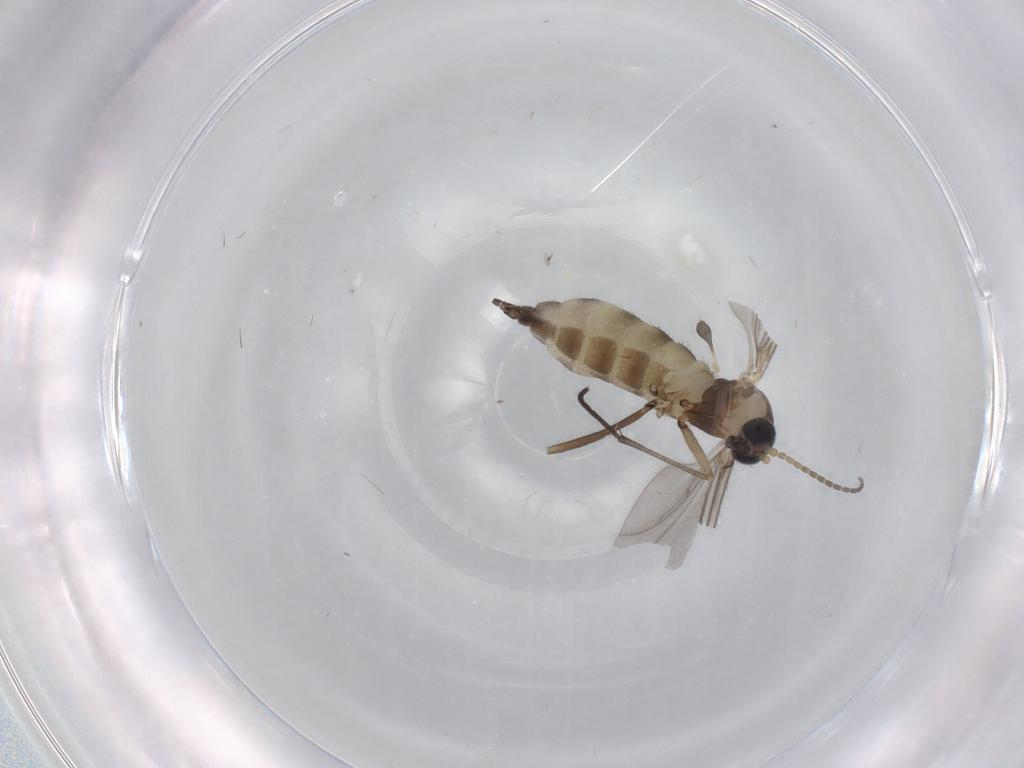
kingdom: Animalia
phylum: Arthropoda
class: Insecta
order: Diptera
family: Sciaridae
